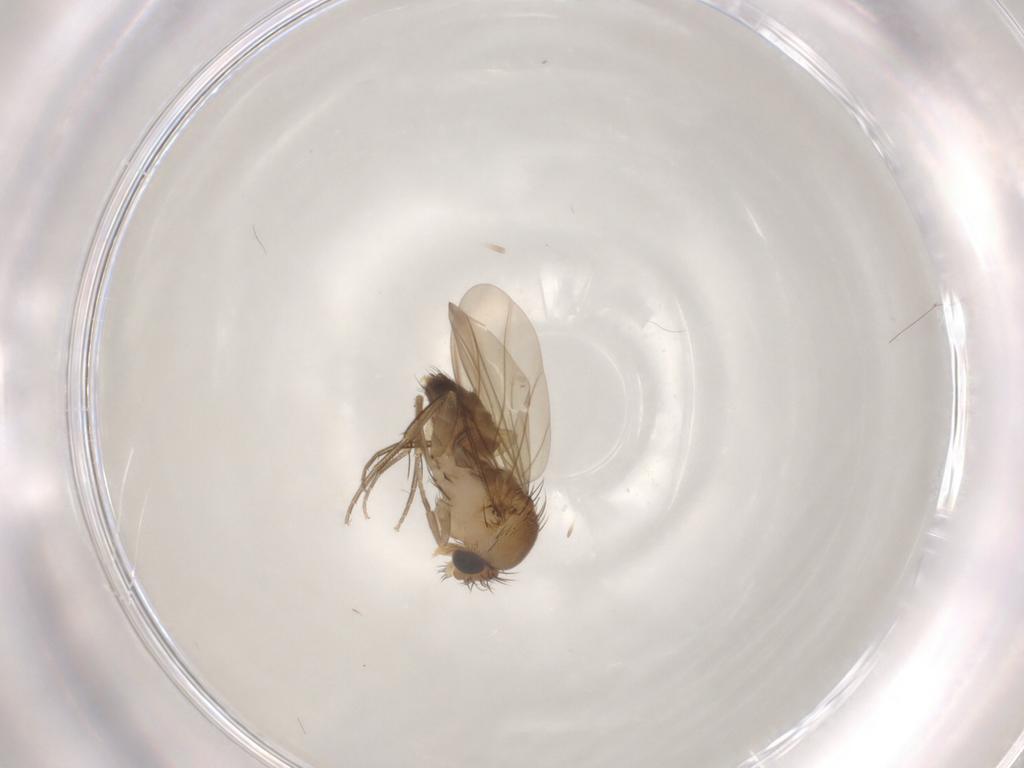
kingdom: Animalia
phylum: Arthropoda
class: Insecta
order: Diptera
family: Phoridae
